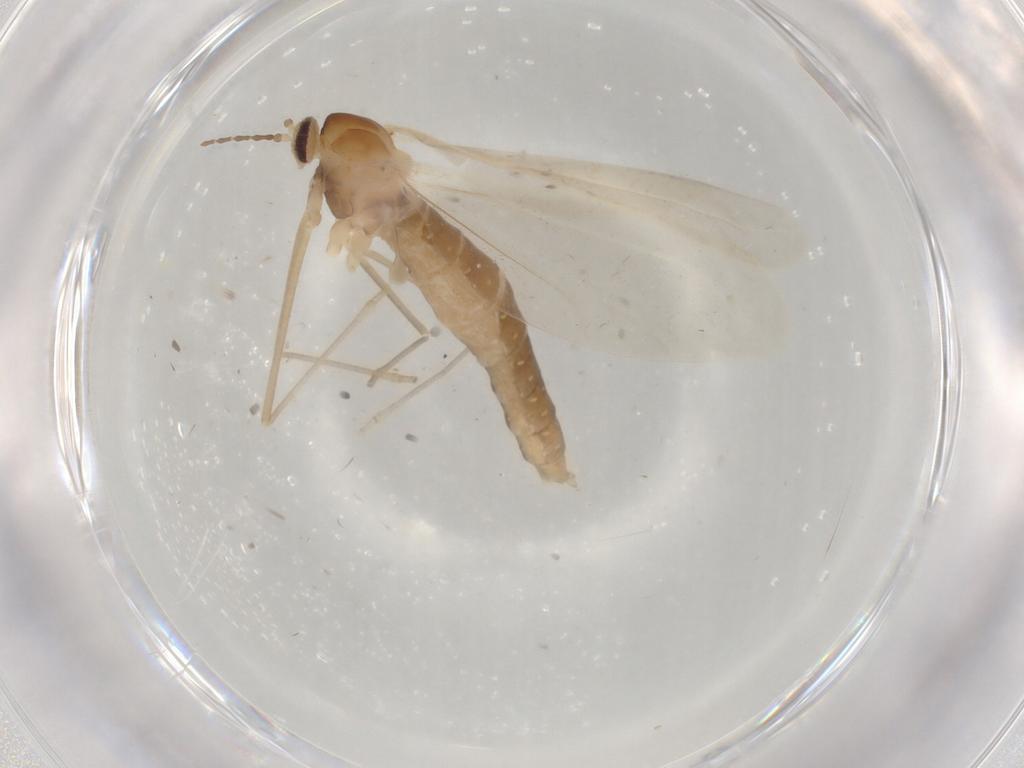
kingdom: Animalia
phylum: Arthropoda
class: Insecta
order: Diptera
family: Cecidomyiidae
